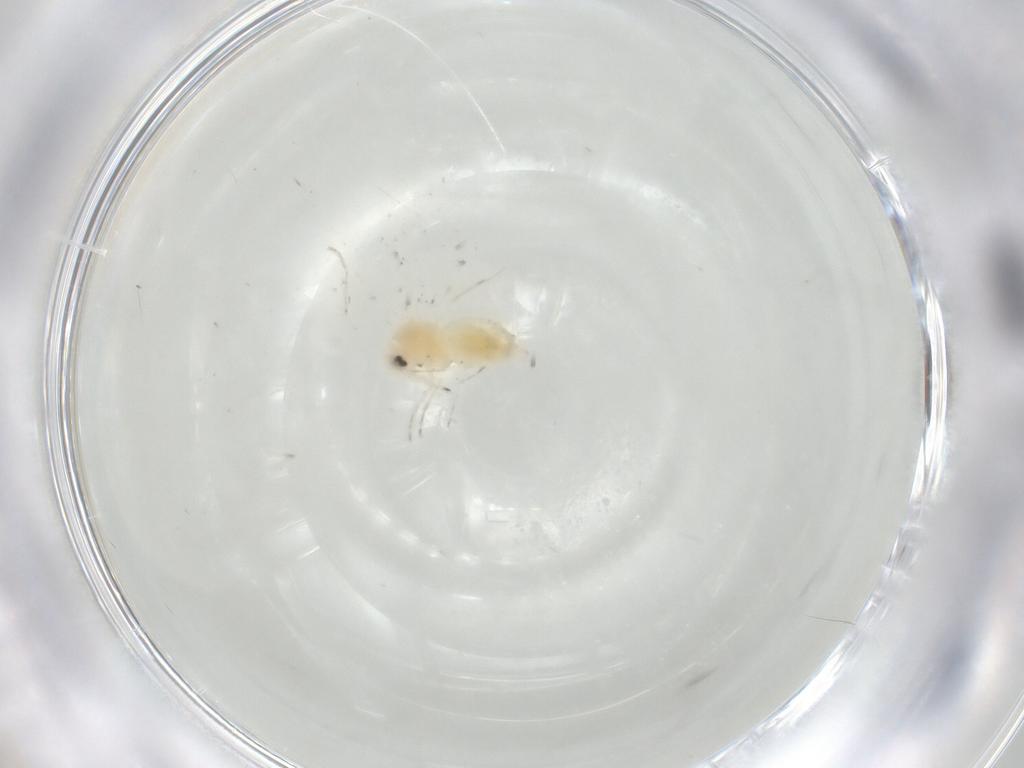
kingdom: Animalia
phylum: Arthropoda
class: Insecta
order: Hemiptera
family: Aleyrodidae
